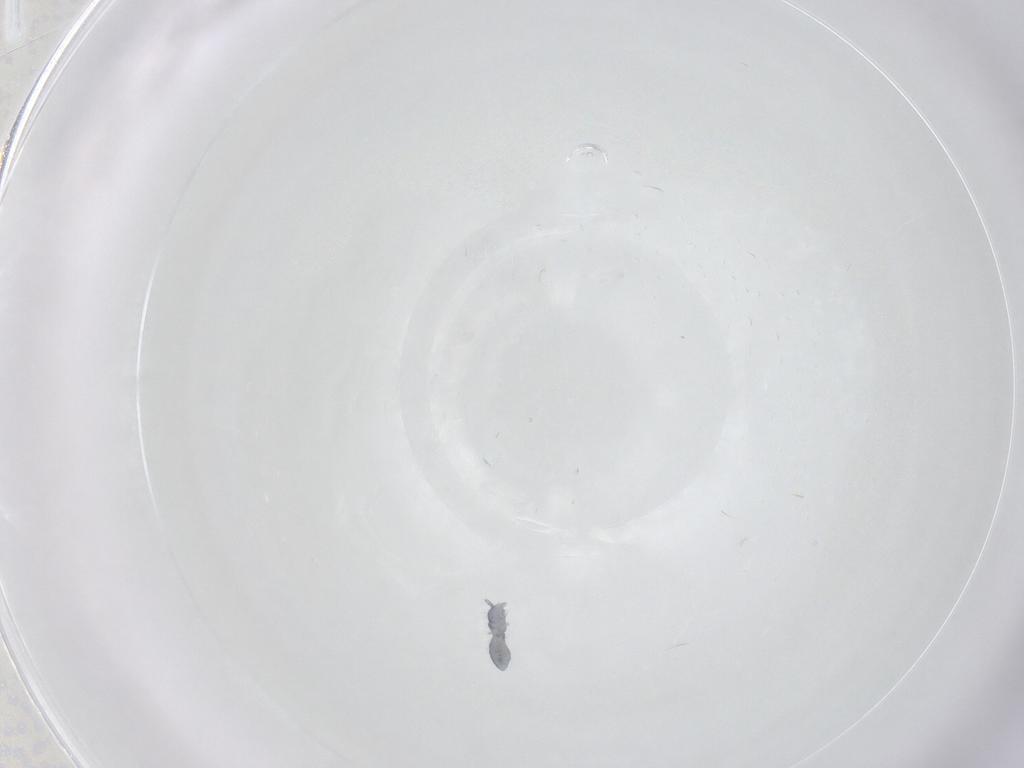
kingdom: Animalia
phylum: Arthropoda
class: Collembola
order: Poduromorpha
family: Hypogastruridae
